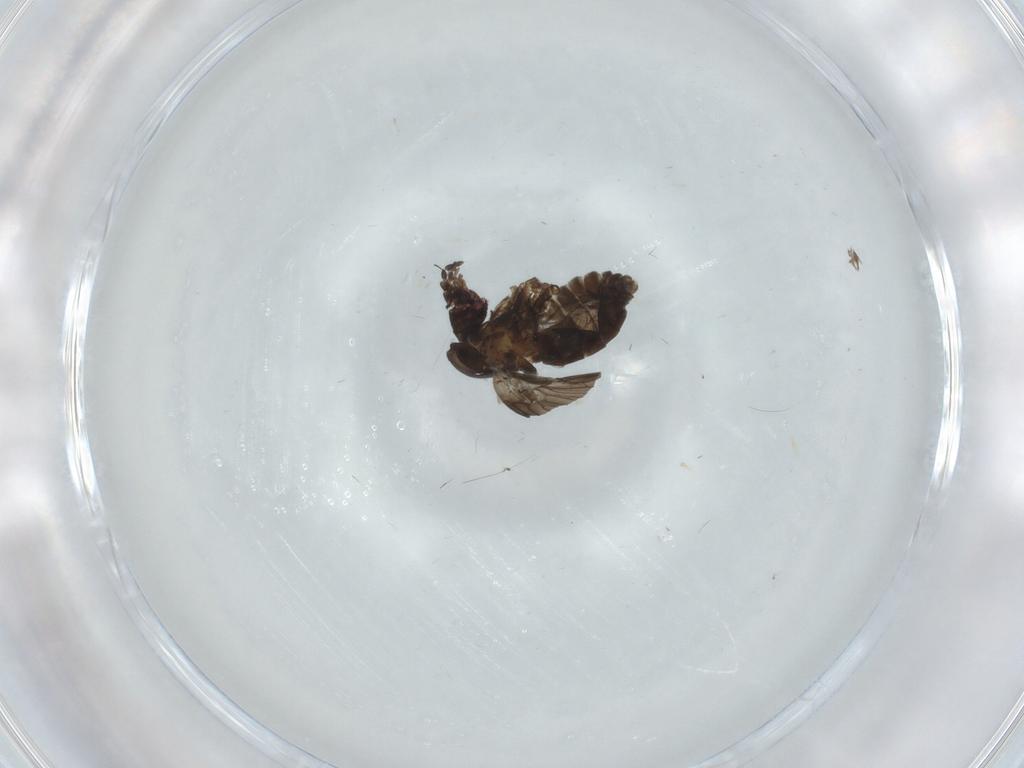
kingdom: Animalia
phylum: Arthropoda
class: Insecta
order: Diptera
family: Psychodidae
